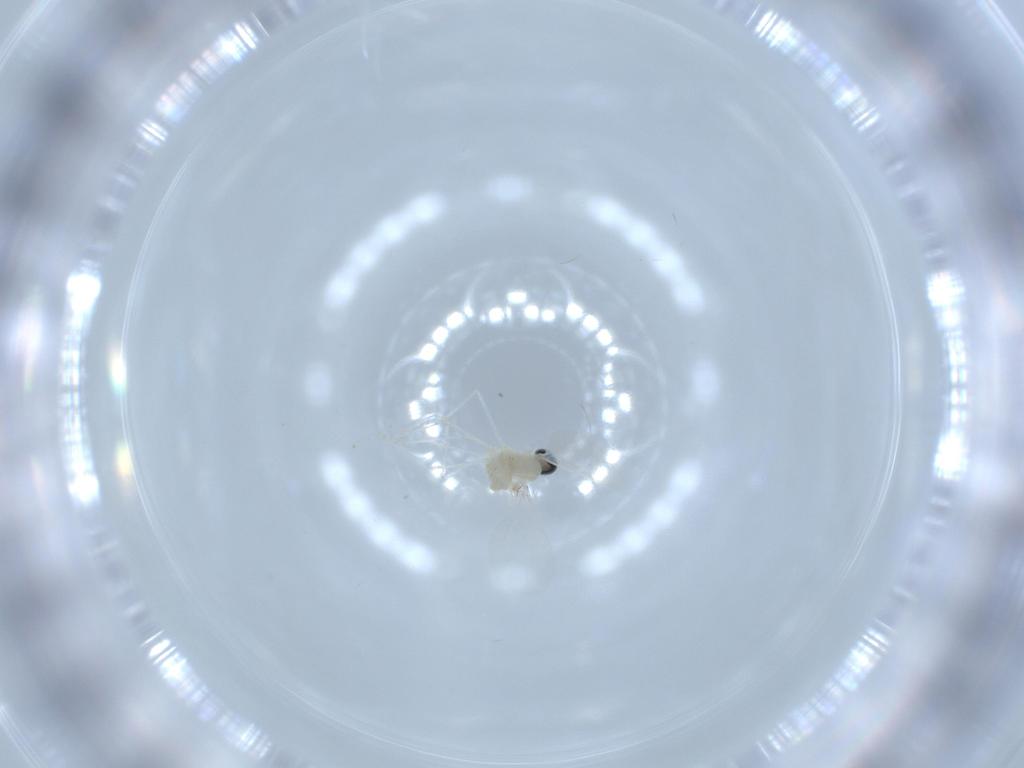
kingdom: Animalia
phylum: Arthropoda
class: Insecta
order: Diptera
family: Cecidomyiidae
